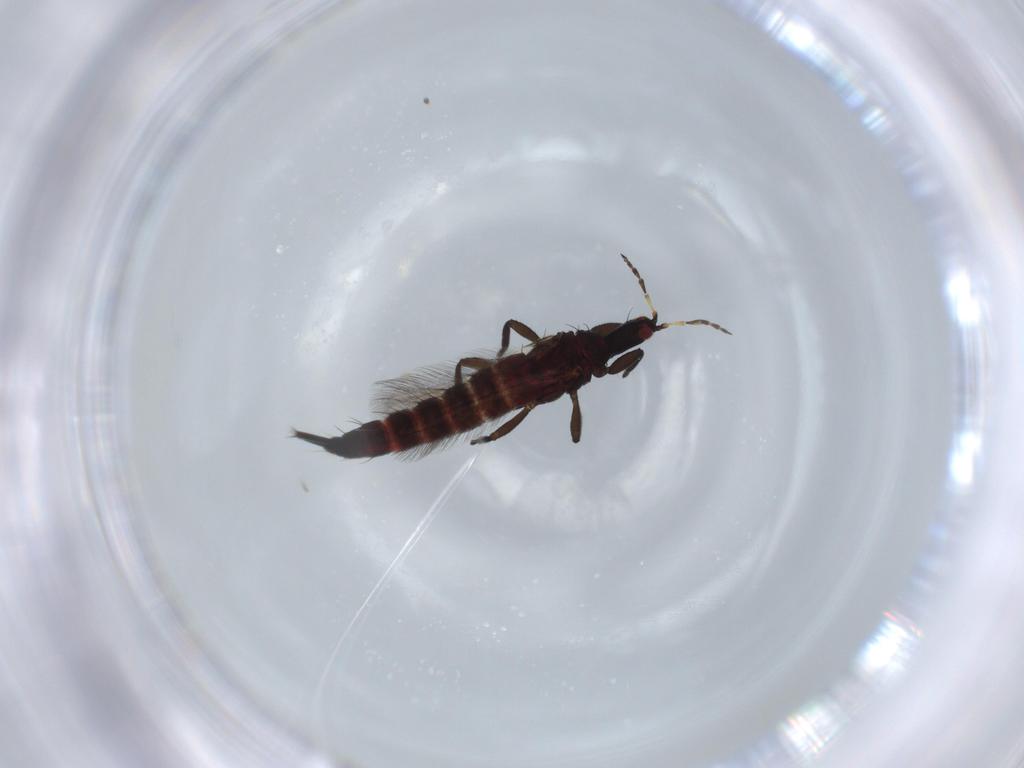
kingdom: Animalia
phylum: Arthropoda
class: Insecta
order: Thysanoptera
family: Phlaeothripidae
